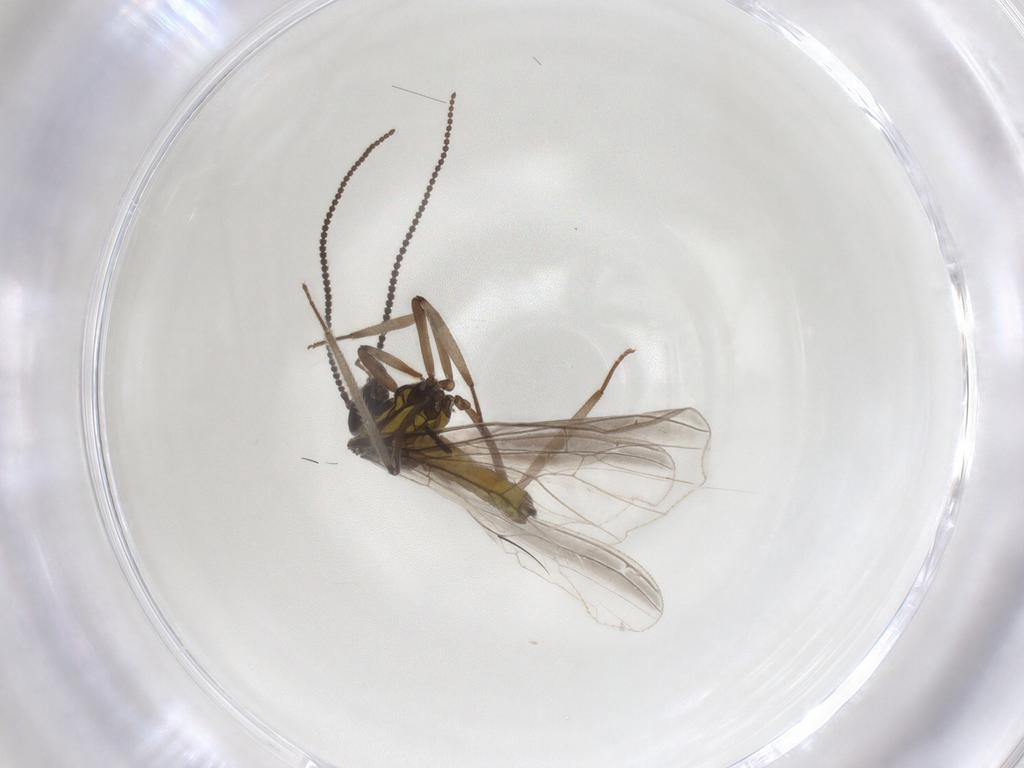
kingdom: Animalia
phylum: Arthropoda
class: Insecta
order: Neuroptera
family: Coniopterygidae
